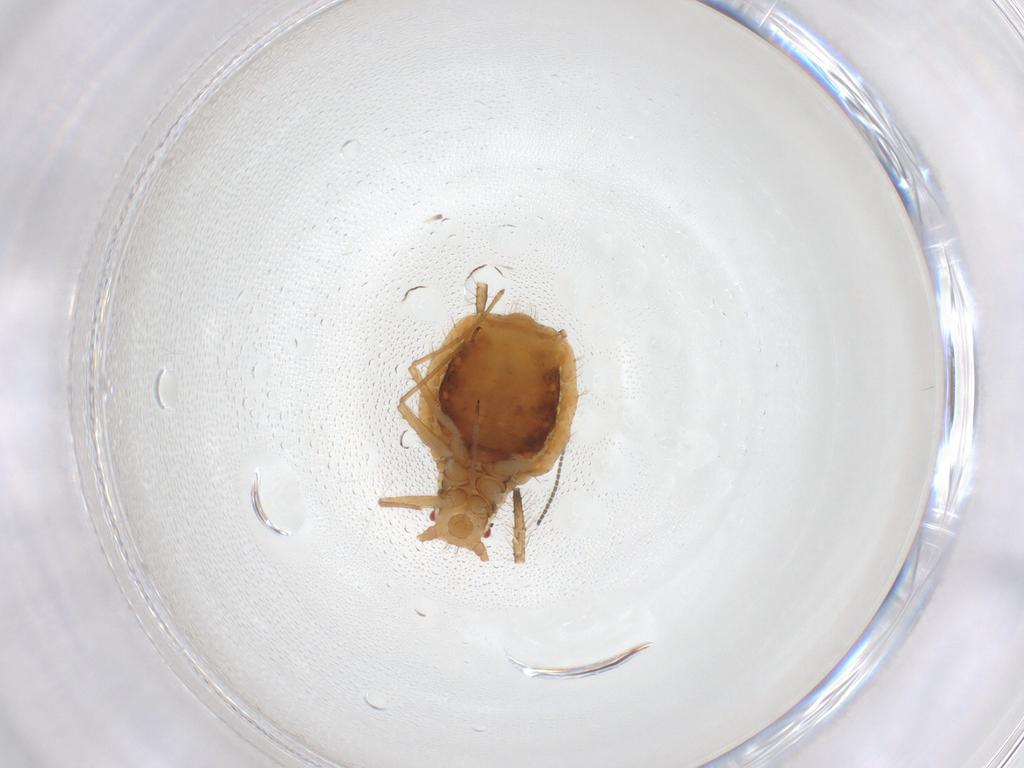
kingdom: Animalia
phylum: Arthropoda
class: Insecta
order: Hemiptera
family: Aphididae
